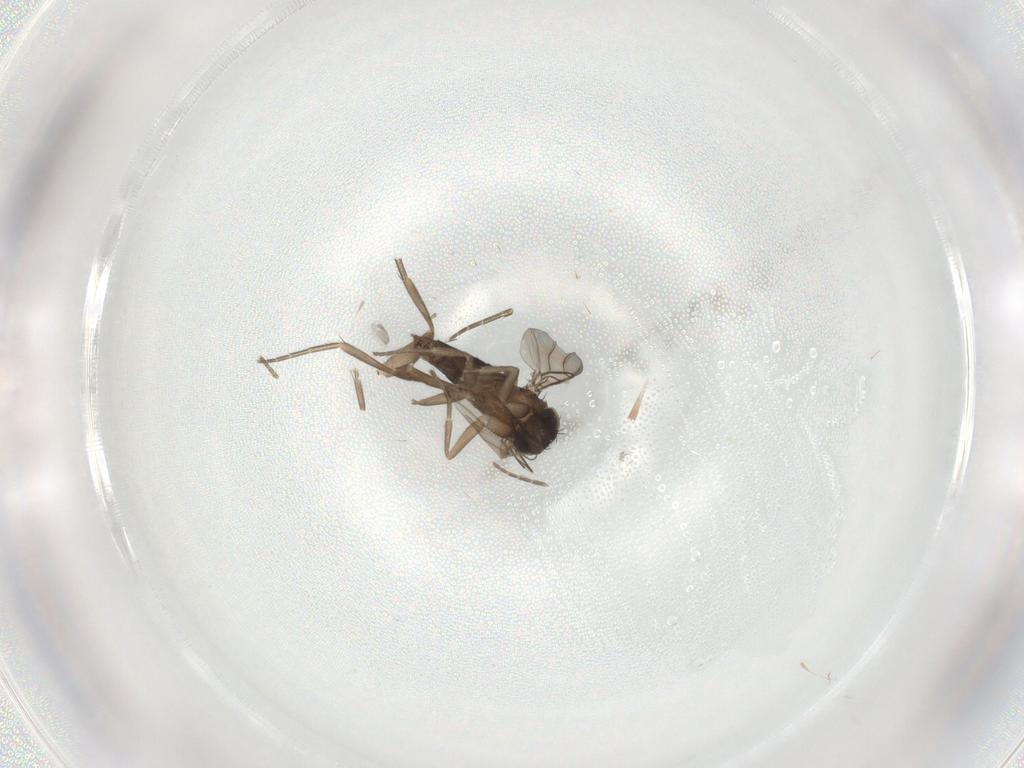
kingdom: Animalia
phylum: Arthropoda
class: Insecta
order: Diptera
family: Phoridae
